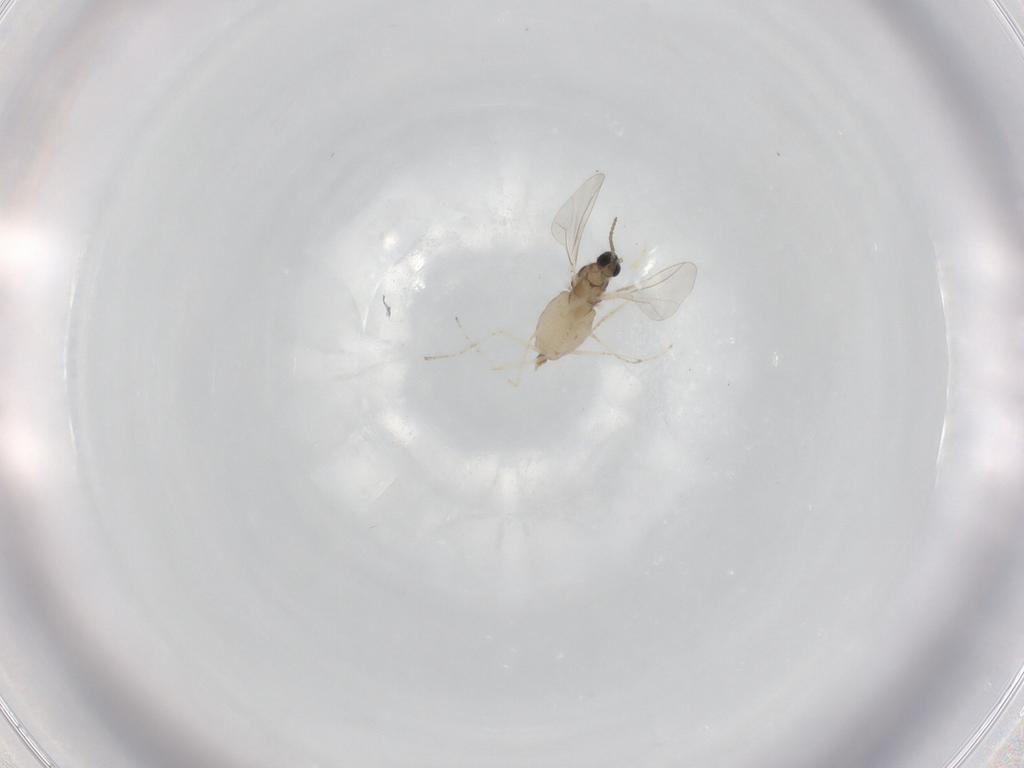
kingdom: Animalia
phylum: Arthropoda
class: Insecta
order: Diptera
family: Cecidomyiidae
